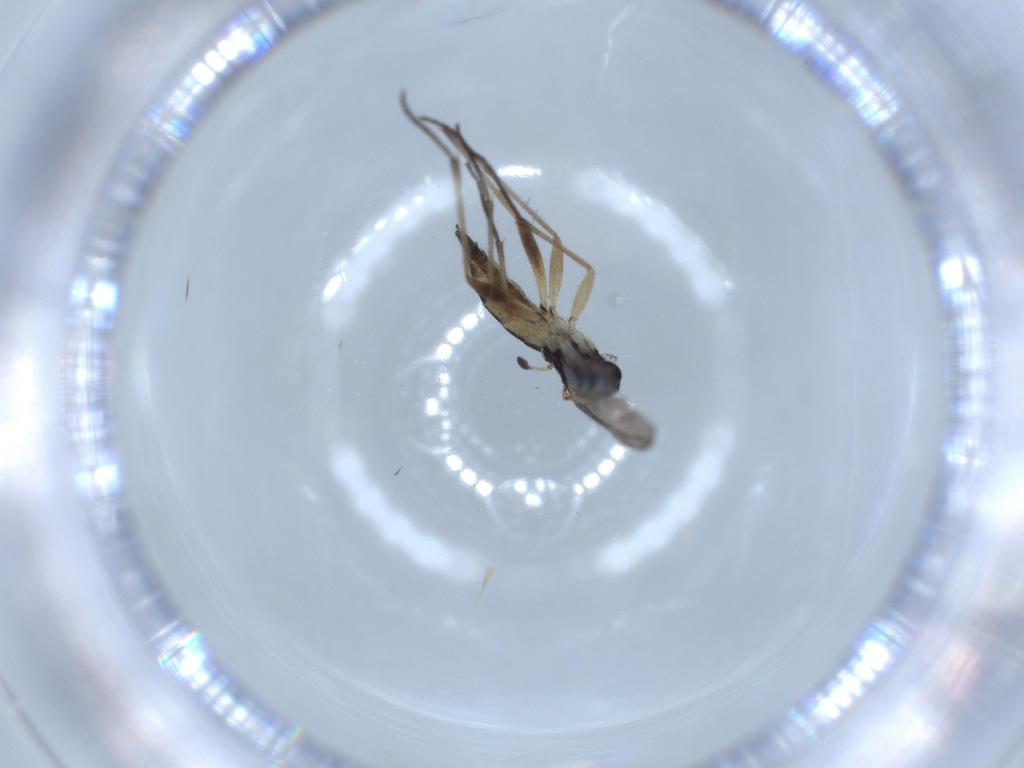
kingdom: Animalia
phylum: Arthropoda
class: Insecta
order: Diptera
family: Sciaridae
